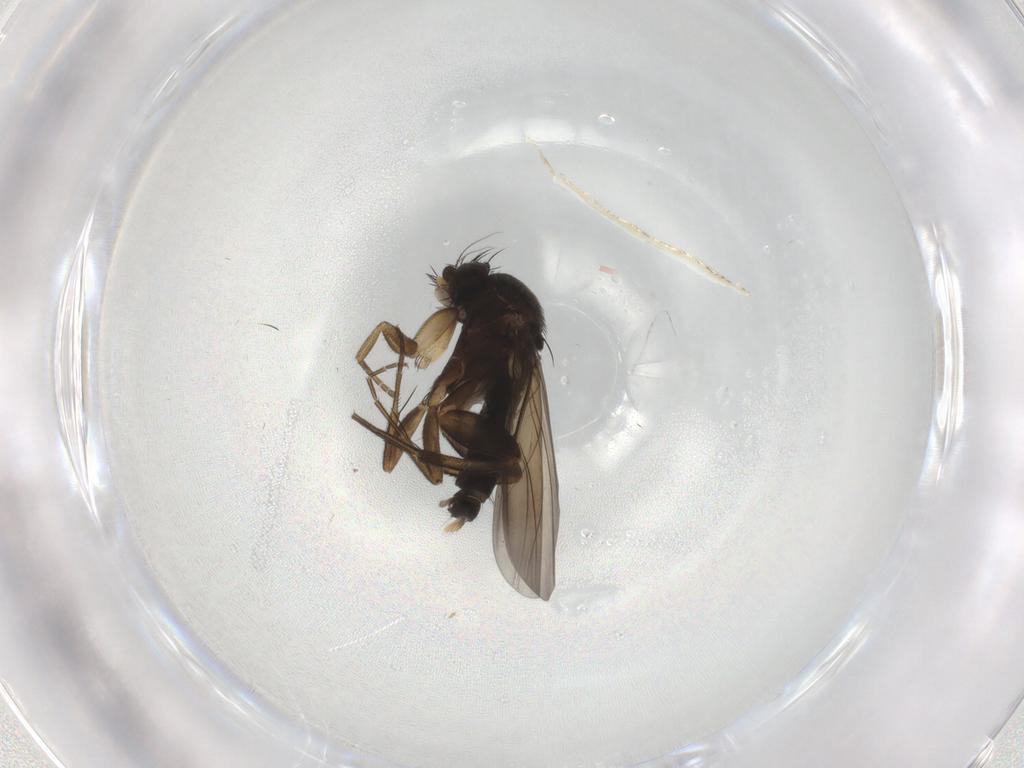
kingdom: Animalia
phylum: Arthropoda
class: Insecta
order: Diptera
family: Phoridae
